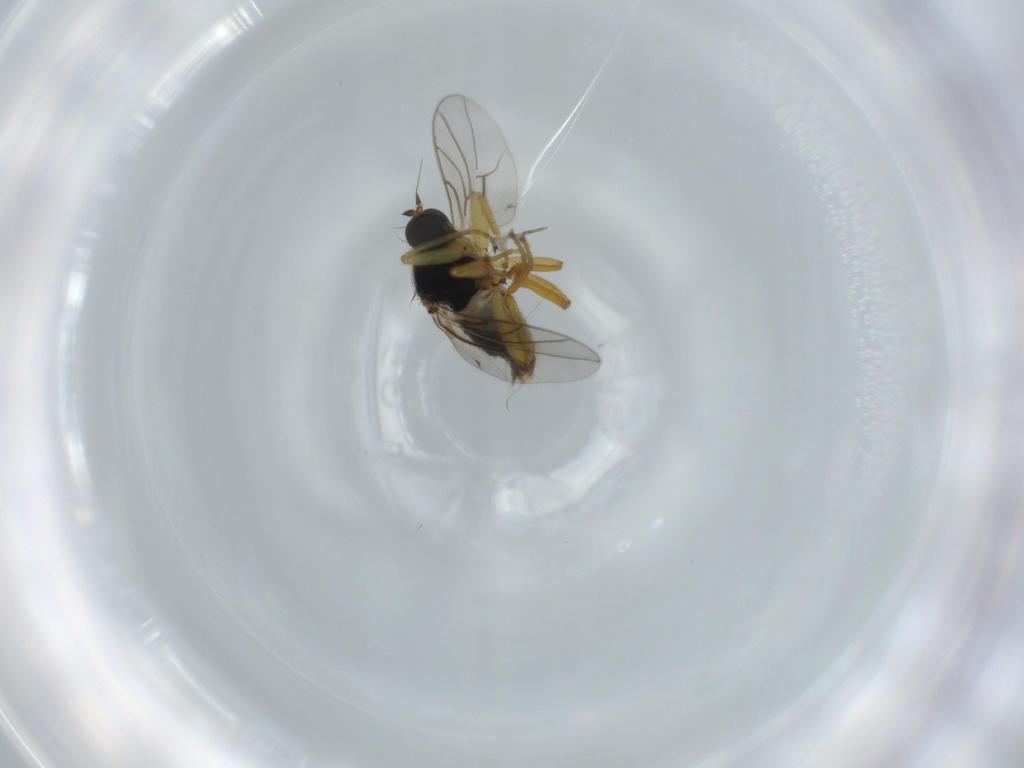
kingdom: Animalia
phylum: Arthropoda
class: Insecta
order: Diptera
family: Hybotidae
